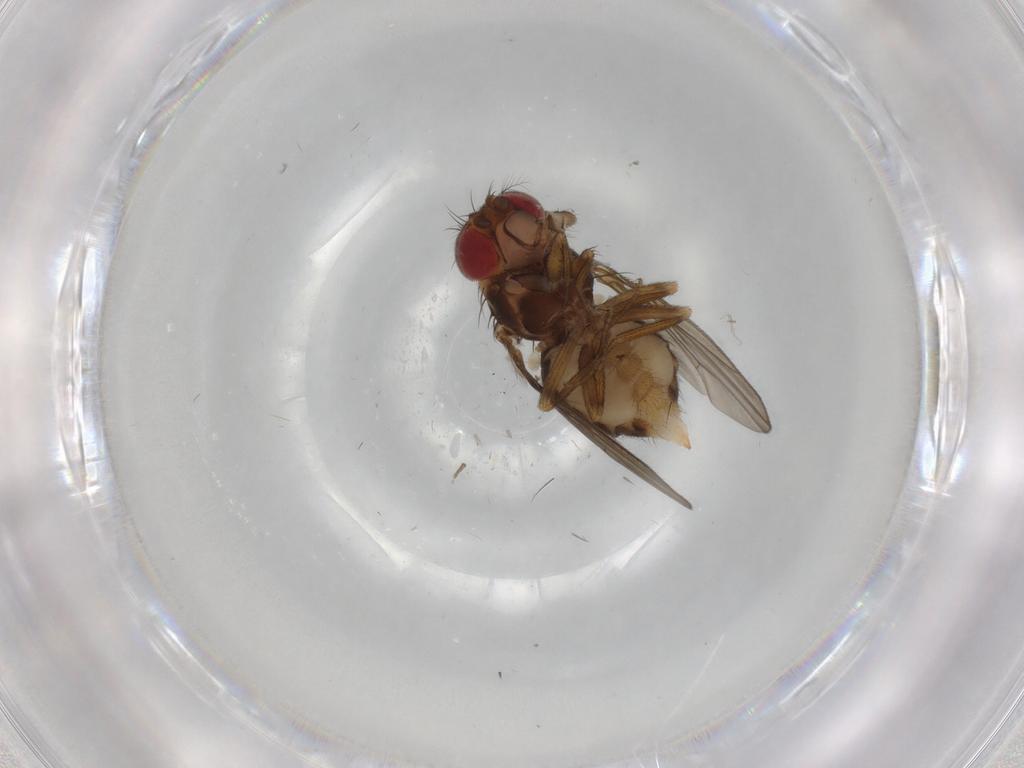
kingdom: Animalia
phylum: Arthropoda
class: Insecta
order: Diptera
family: Drosophilidae
